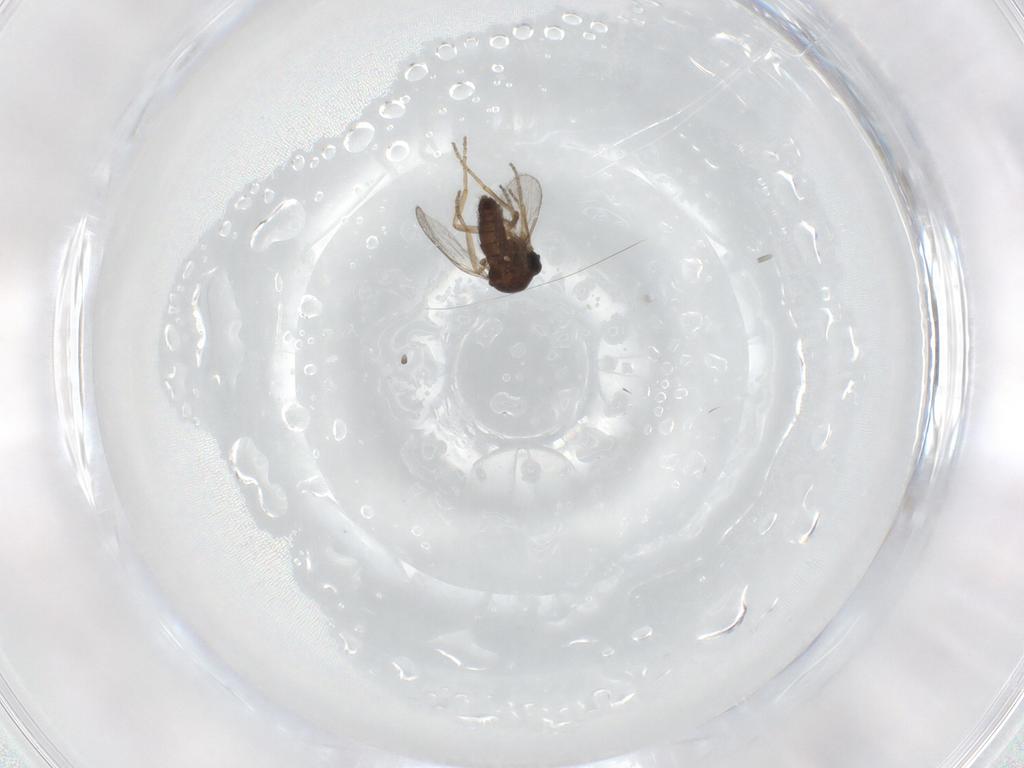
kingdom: Animalia
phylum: Arthropoda
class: Insecta
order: Diptera
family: Ceratopogonidae
